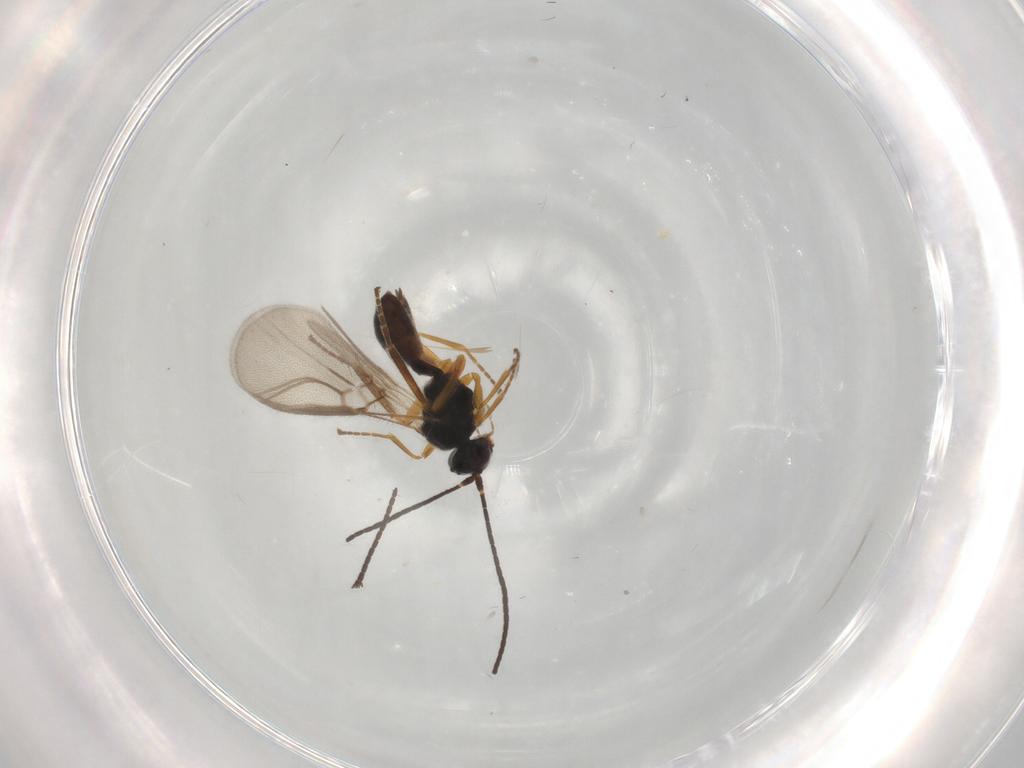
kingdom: Animalia
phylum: Arthropoda
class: Insecta
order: Hymenoptera
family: Braconidae
